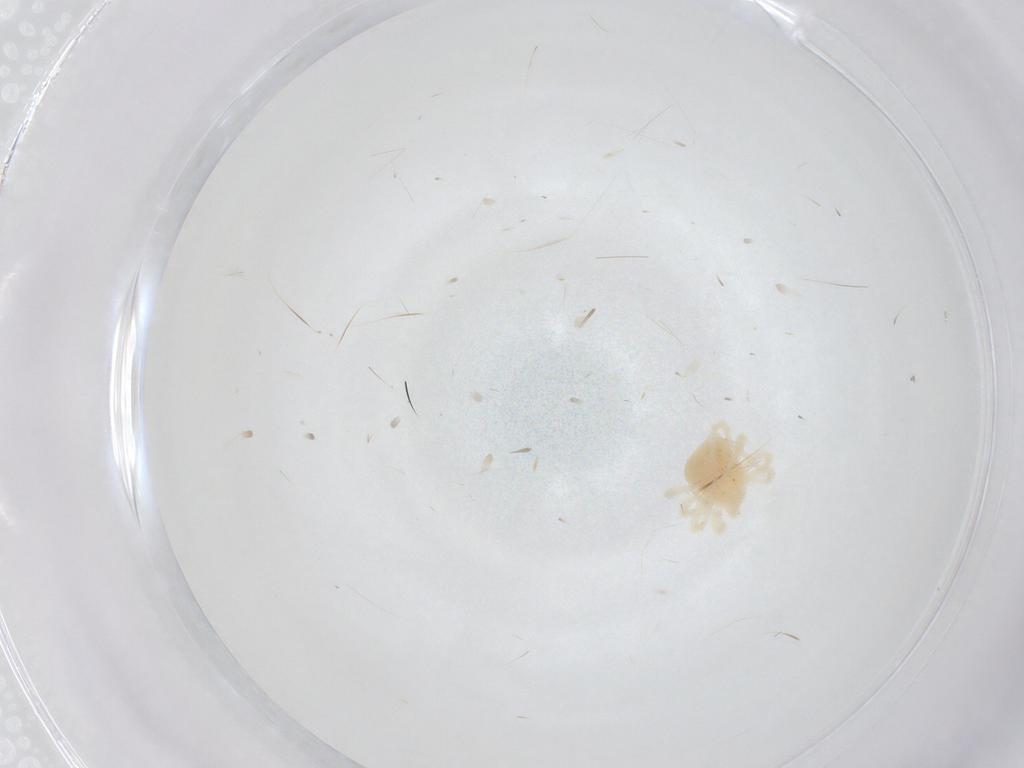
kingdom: Animalia
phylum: Arthropoda
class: Arachnida
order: Trombidiformes
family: Anystidae
